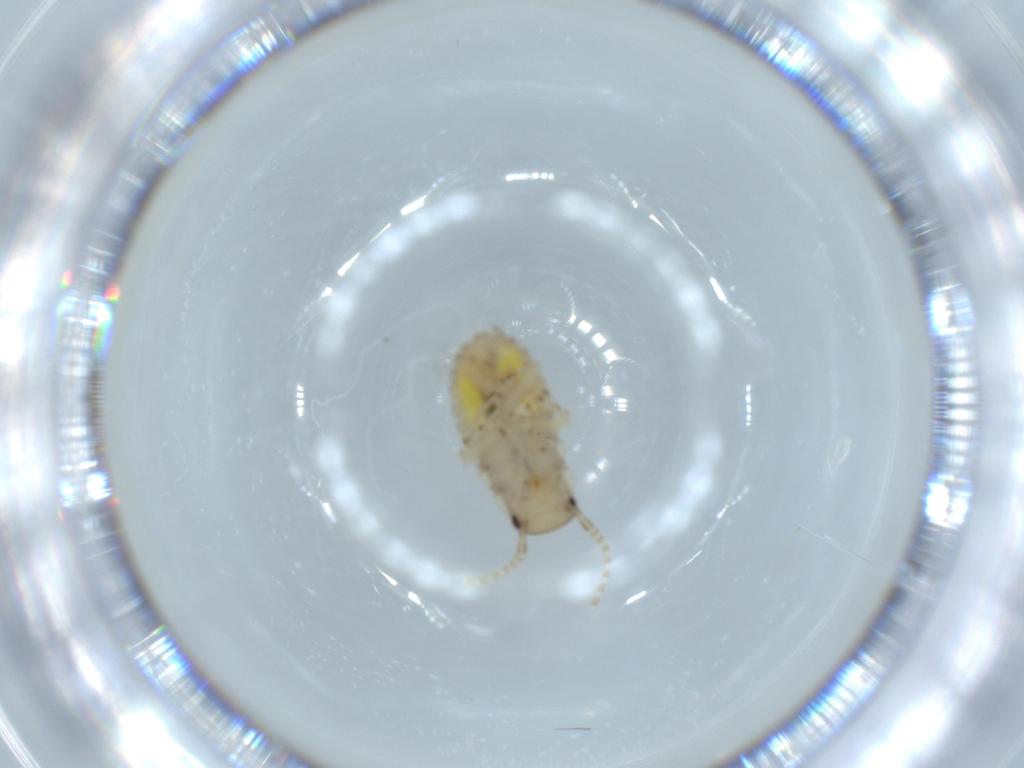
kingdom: Animalia
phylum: Arthropoda
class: Insecta
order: Blattodea
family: Ectobiidae
